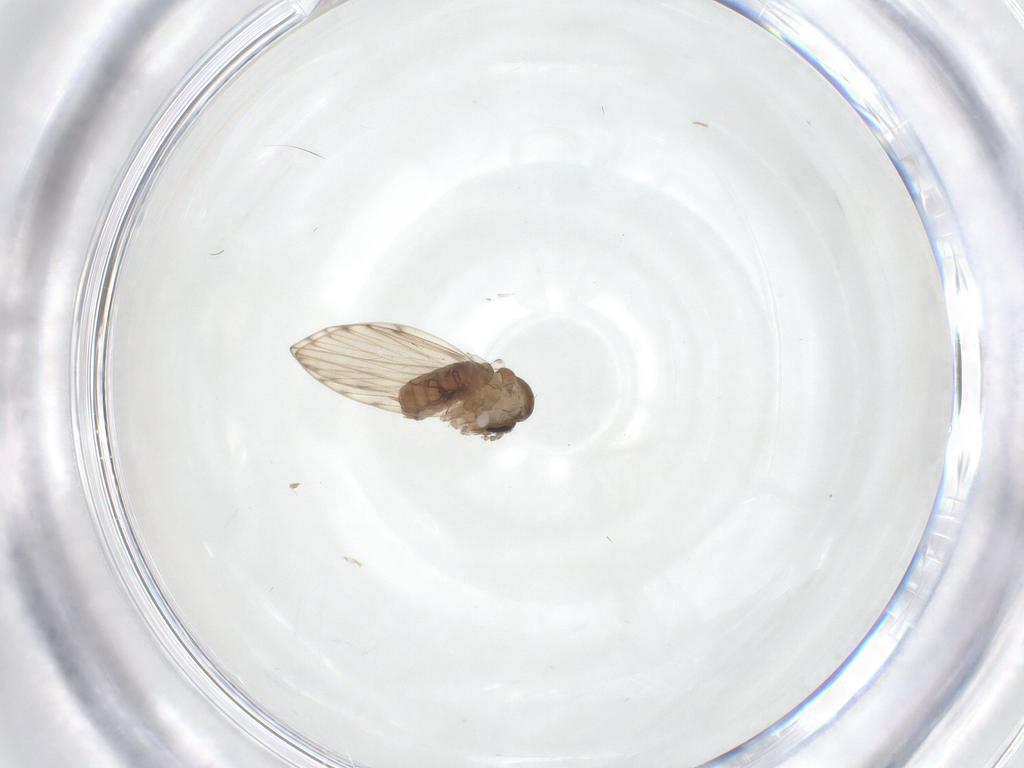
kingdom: Animalia
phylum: Arthropoda
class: Insecta
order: Diptera
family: Psychodidae
